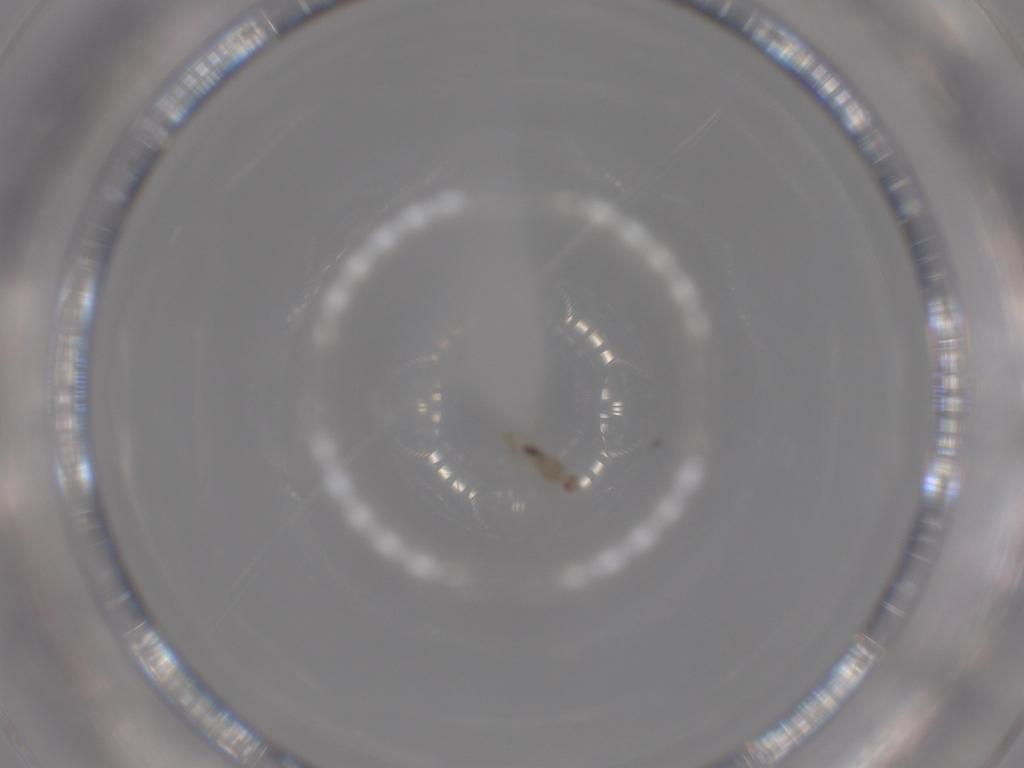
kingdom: Animalia
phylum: Arthropoda
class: Insecta
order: Diptera
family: Cecidomyiidae
